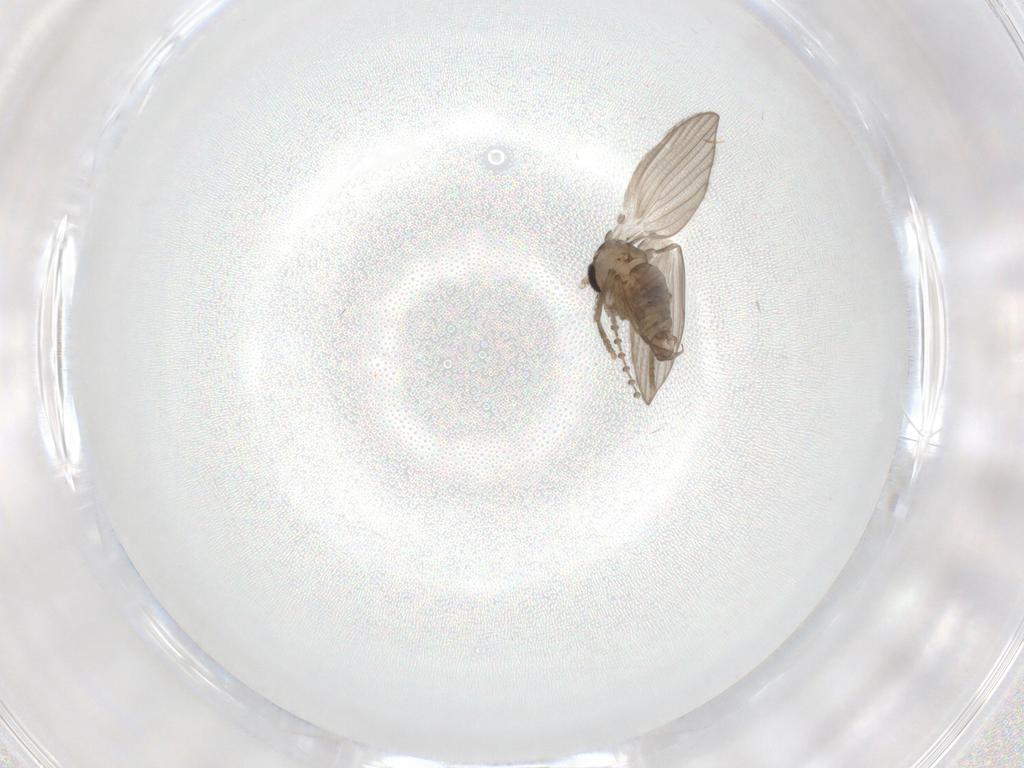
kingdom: Animalia
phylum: Arthropoda
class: Insecta
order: Diptera
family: Psychodidae
